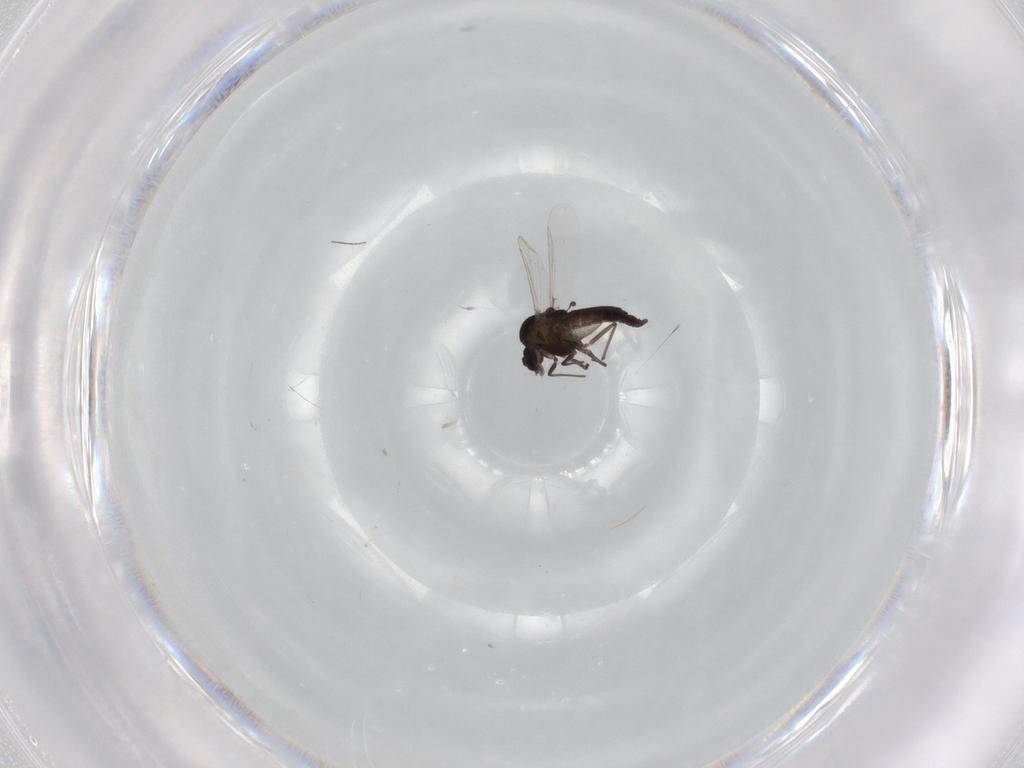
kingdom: Animalia
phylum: Arthropoda
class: Insecta
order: Diptera
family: Chironomidae
